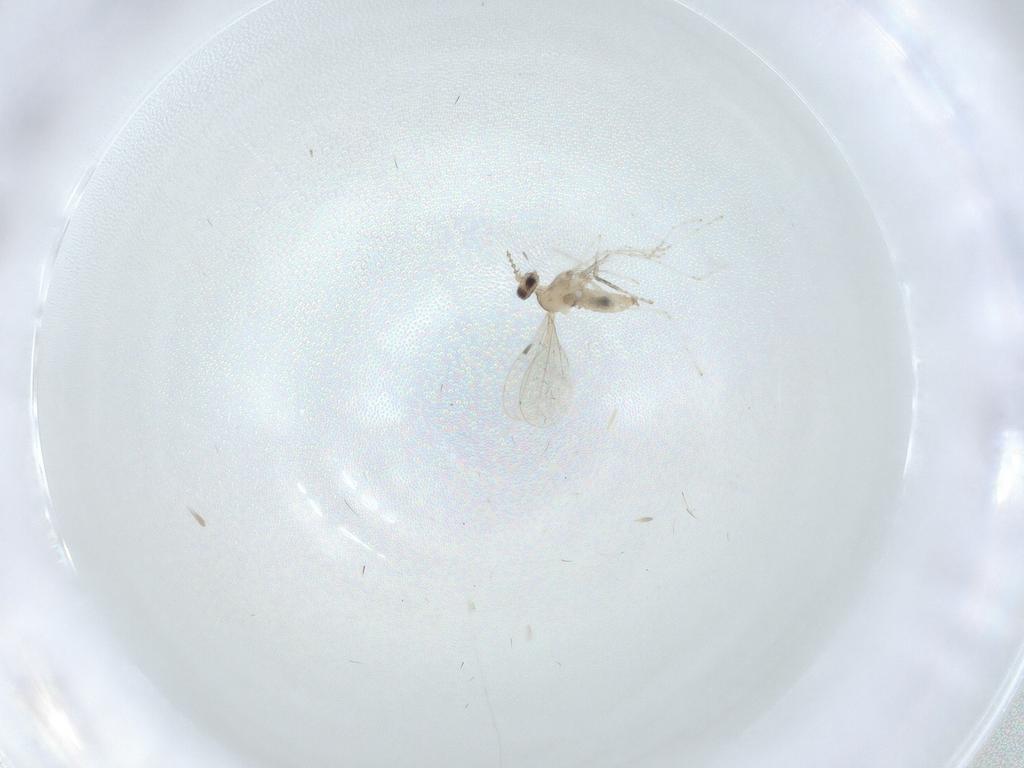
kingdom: Animalia
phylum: Arthropoda
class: Insecta
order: Diptera
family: Cecidomyiidae
